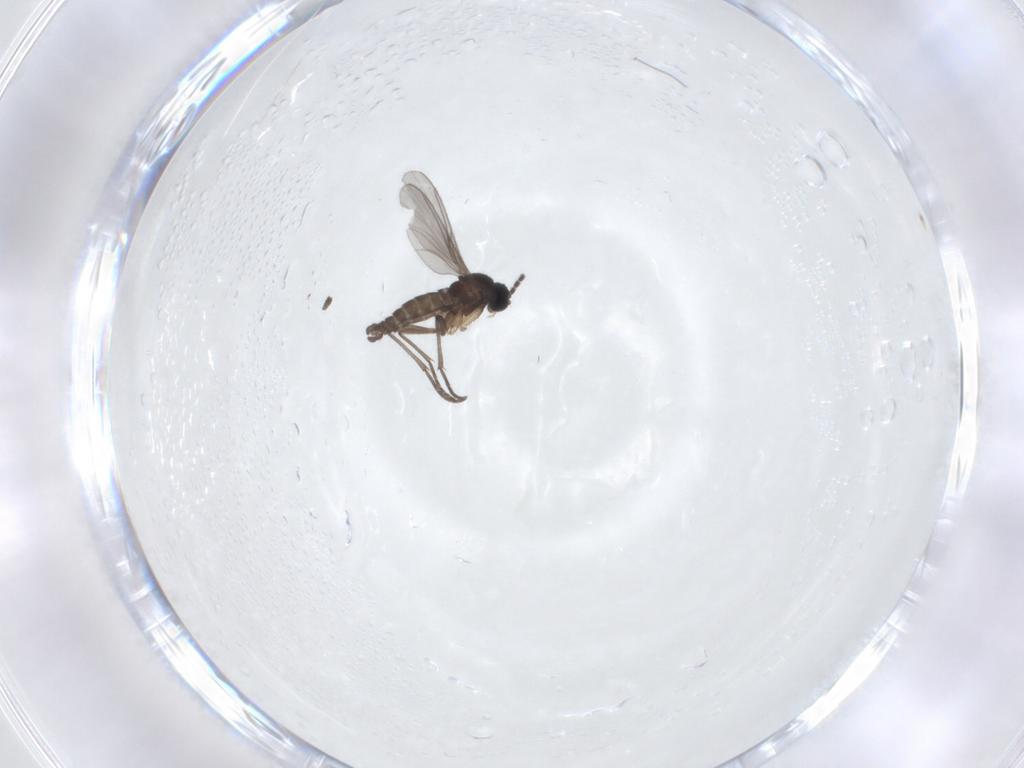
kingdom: Animalia
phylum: Arthropoda
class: Insecta
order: Diptera
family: Sciaridae
